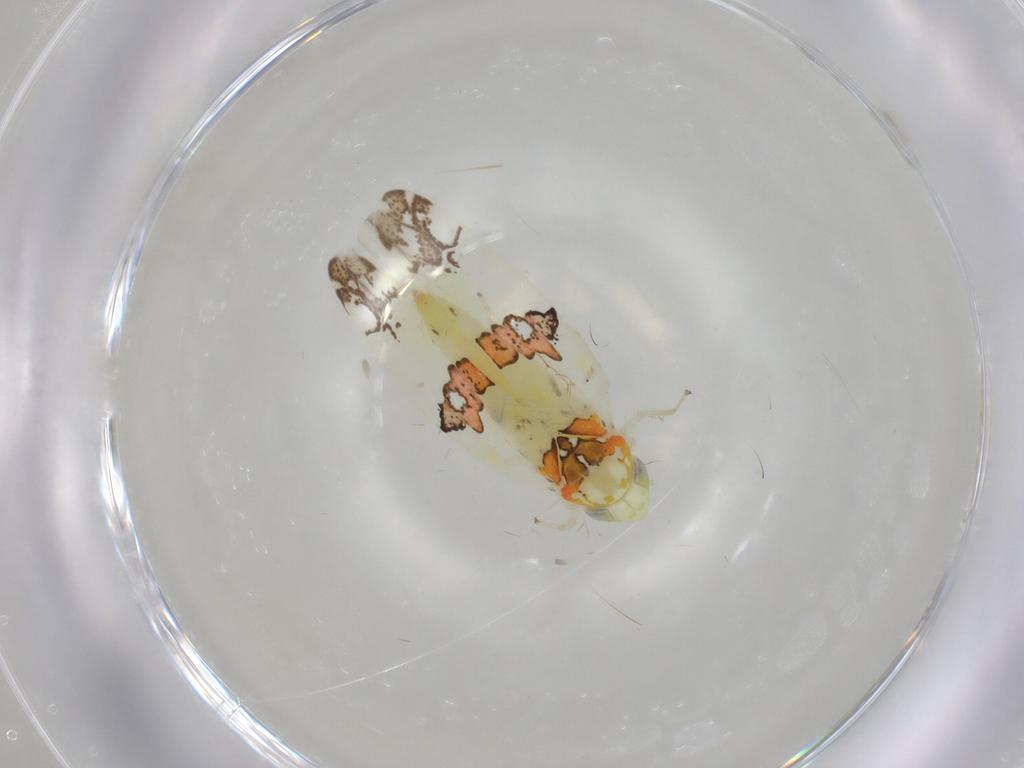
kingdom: Animalia
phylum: Arthropoda
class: Insecta
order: Hemiptera
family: Cicadellidae
